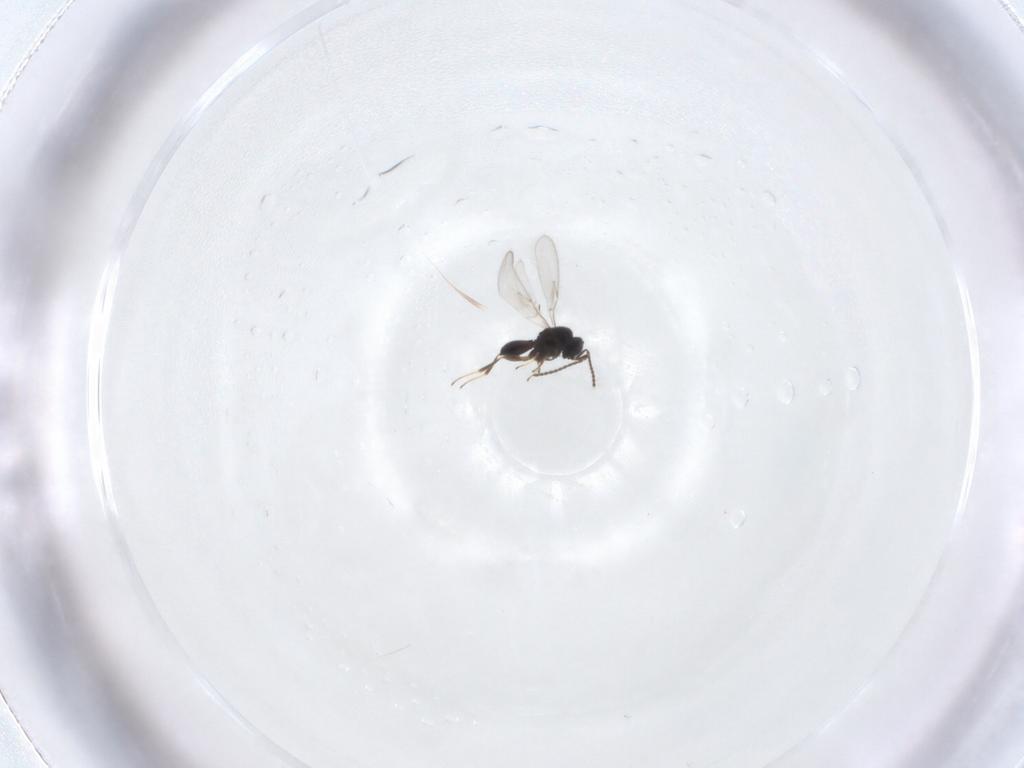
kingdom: Animalia
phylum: Arthropoda
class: Insecta
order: Hymenoptera
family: Scelionidae
